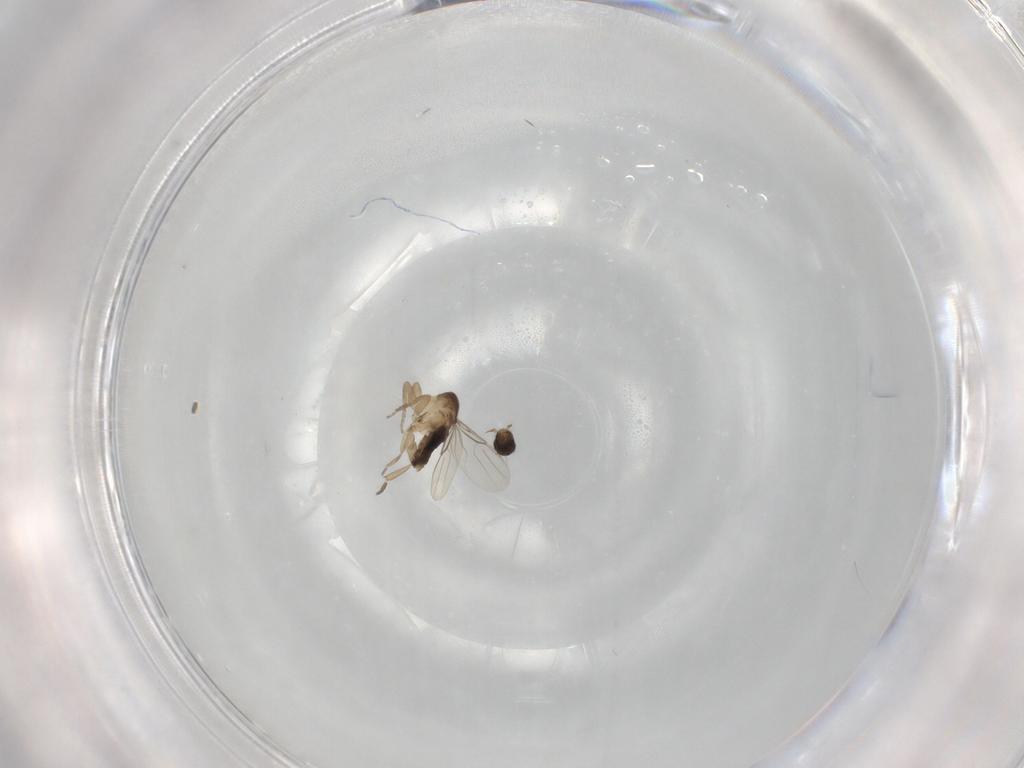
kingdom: Animalia
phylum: Arthropoda
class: Insecta
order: Diptera
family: Phoridae
